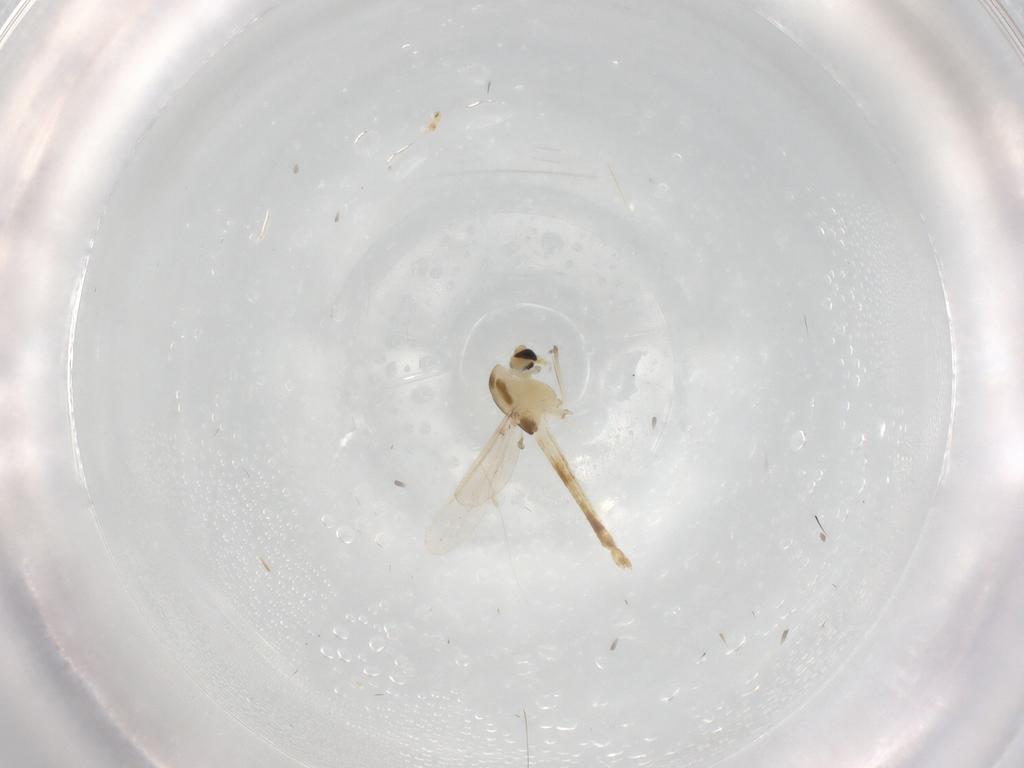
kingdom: Animalia
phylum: Arthropoda
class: Insecta
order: Diptera
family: Chironomidae
